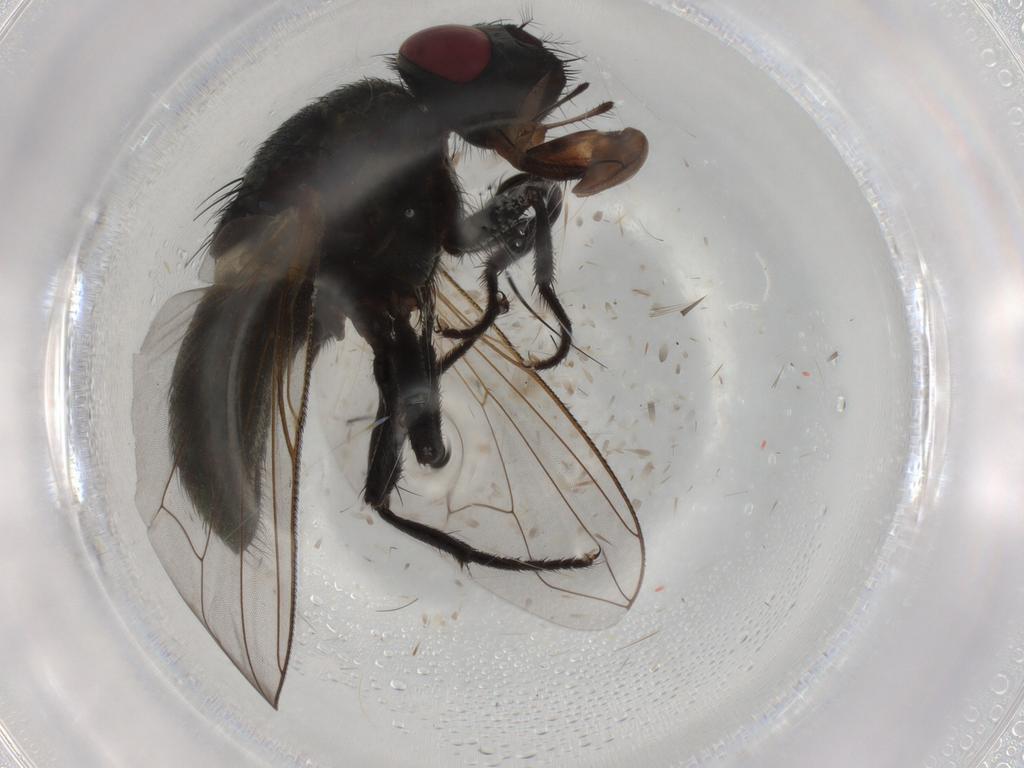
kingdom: Animalia
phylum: Arthropoda
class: Insecta
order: Diptera
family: Muscidae
